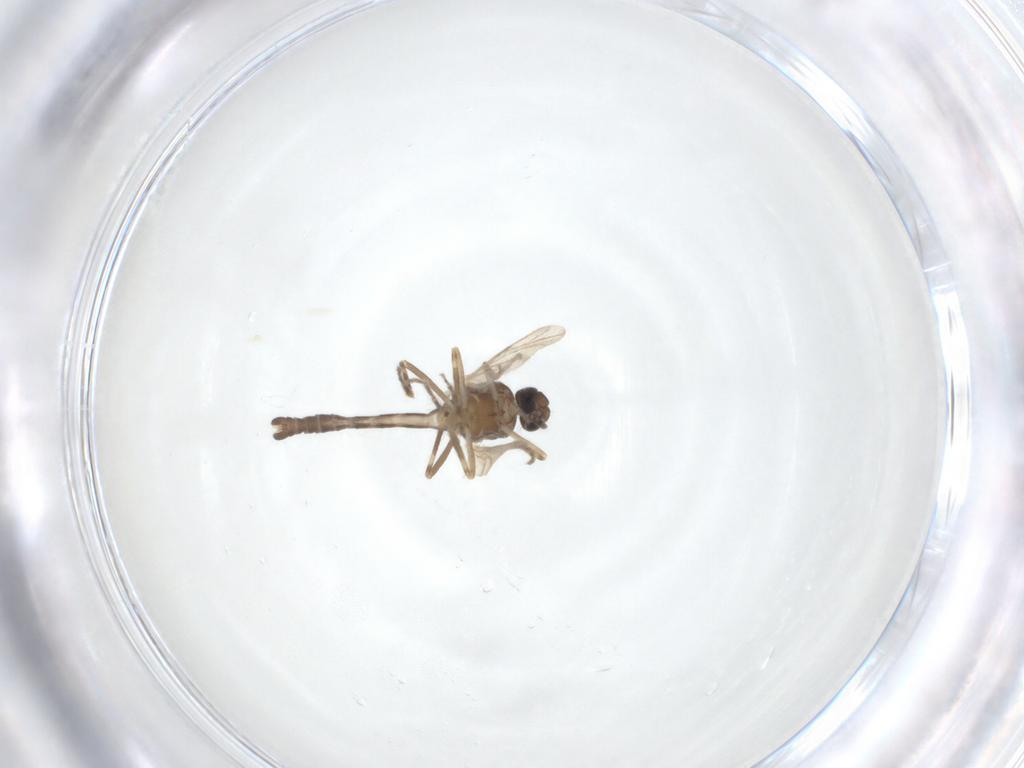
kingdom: Animalia
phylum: Arthropoda
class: Insecta
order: Diptera
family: Ceratopogonidae
